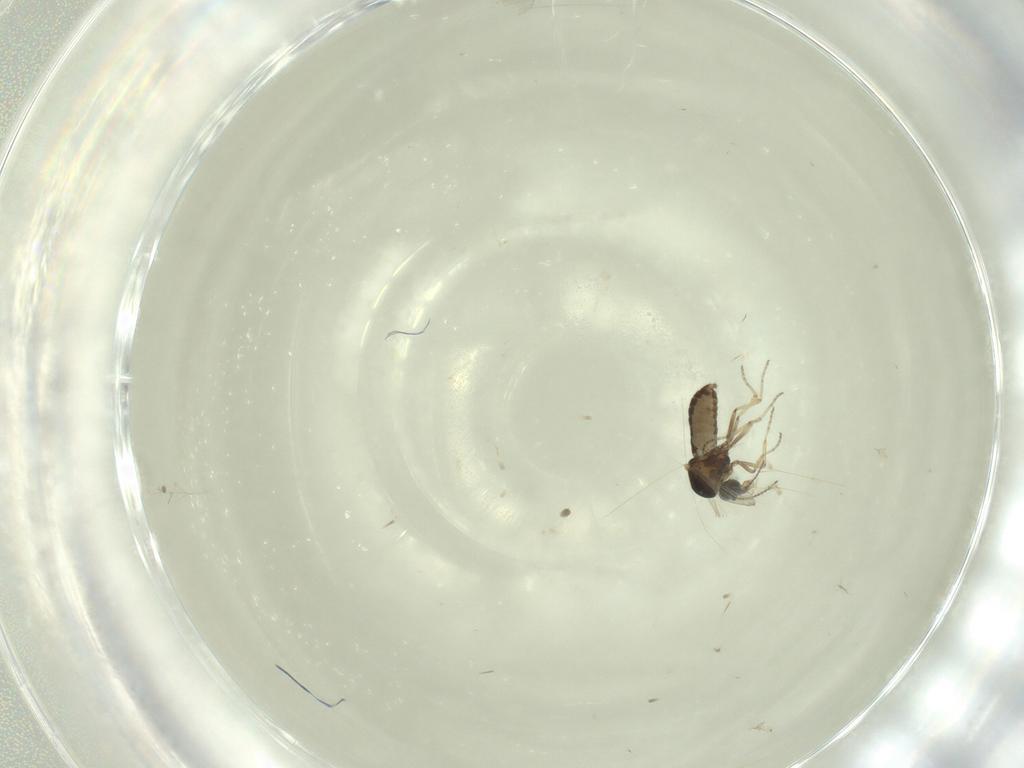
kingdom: Animalia
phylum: Arthropoda
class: Insecta
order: Diptera
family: Ceratopogonidae
